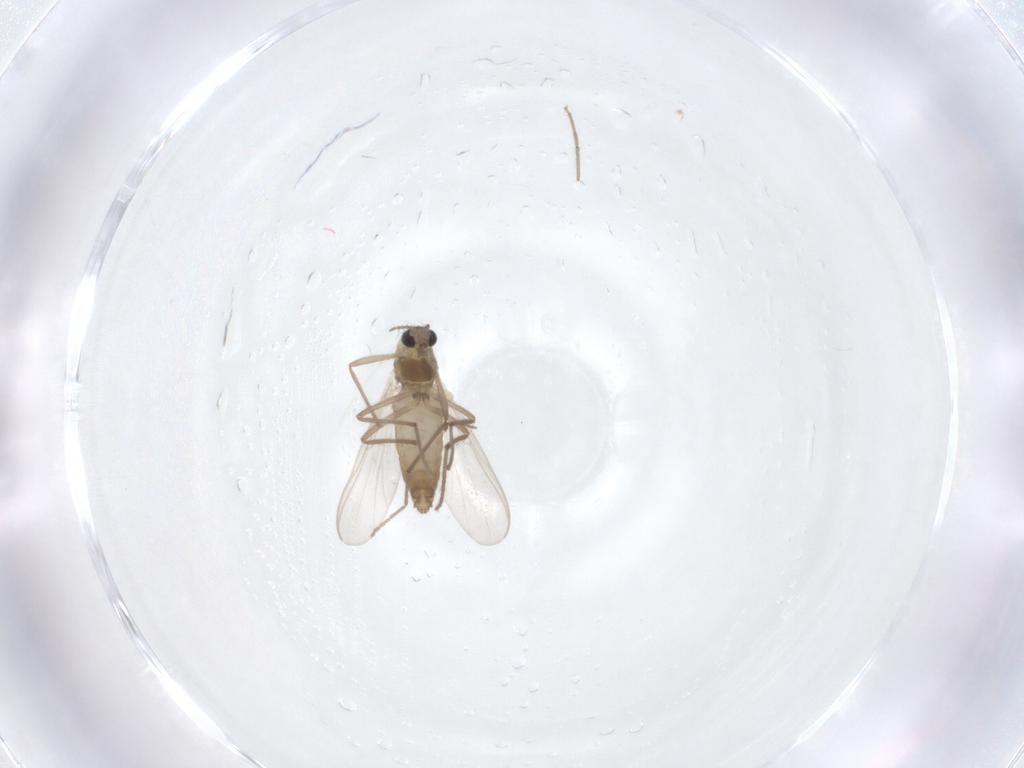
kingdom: Animalia
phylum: Arthropoda
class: Insecta
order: Diptera
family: Chironomidae
